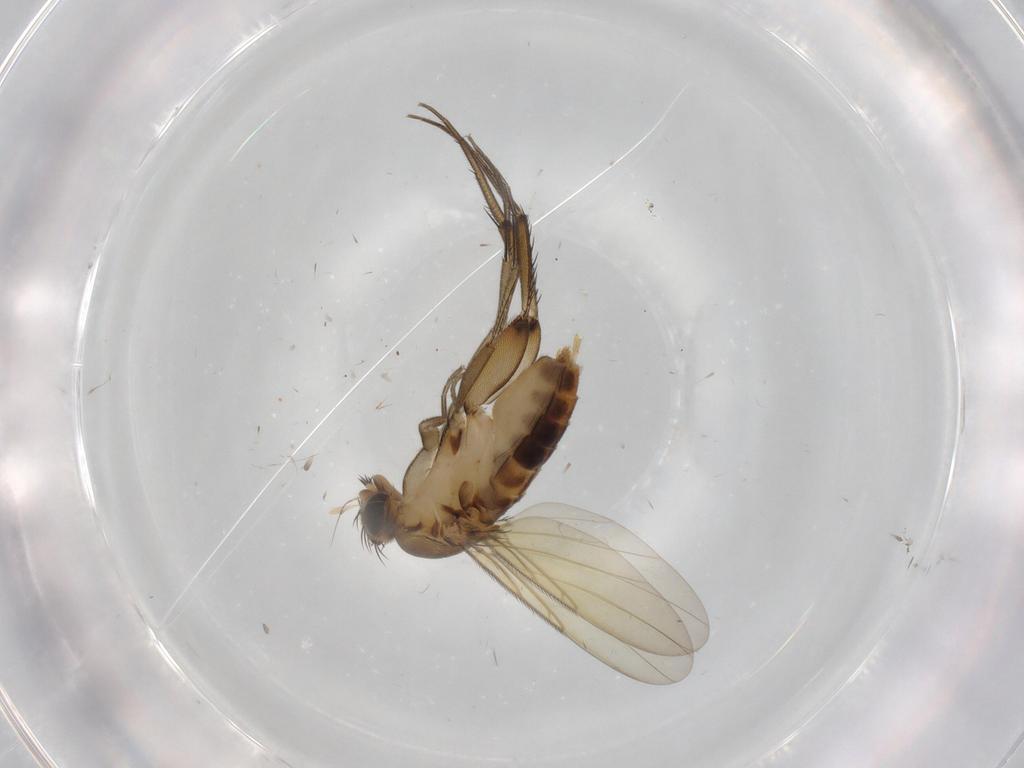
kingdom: Animalia
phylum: Arthropoda
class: Insecta
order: Diptera
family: Phoridae
